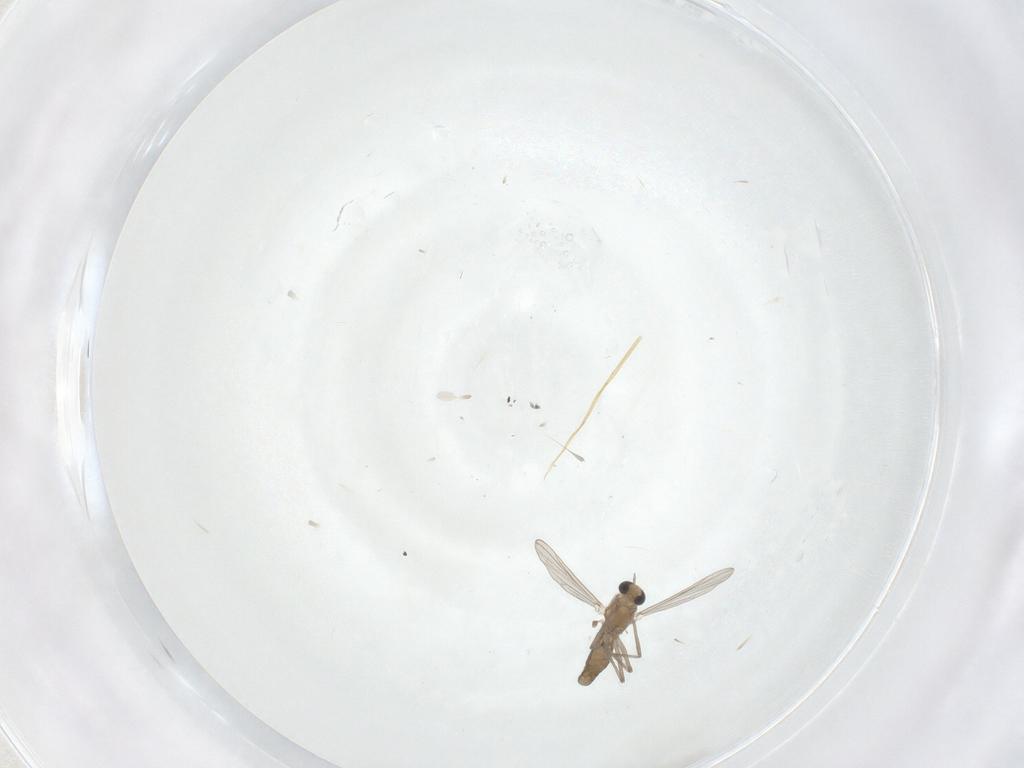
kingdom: Animalia
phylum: Arthropoda
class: Insecta
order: Diptera
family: Chironomidae
